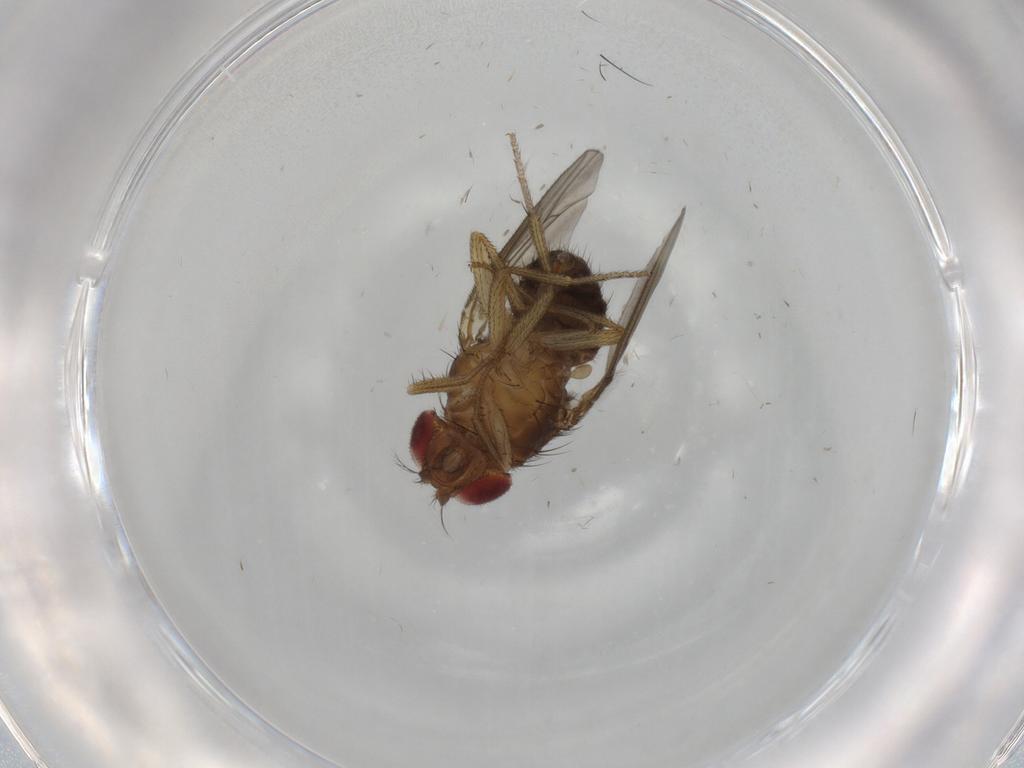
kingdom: Animalia
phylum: Arthropoda
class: Insecta
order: Diptera
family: Drosophilidae
